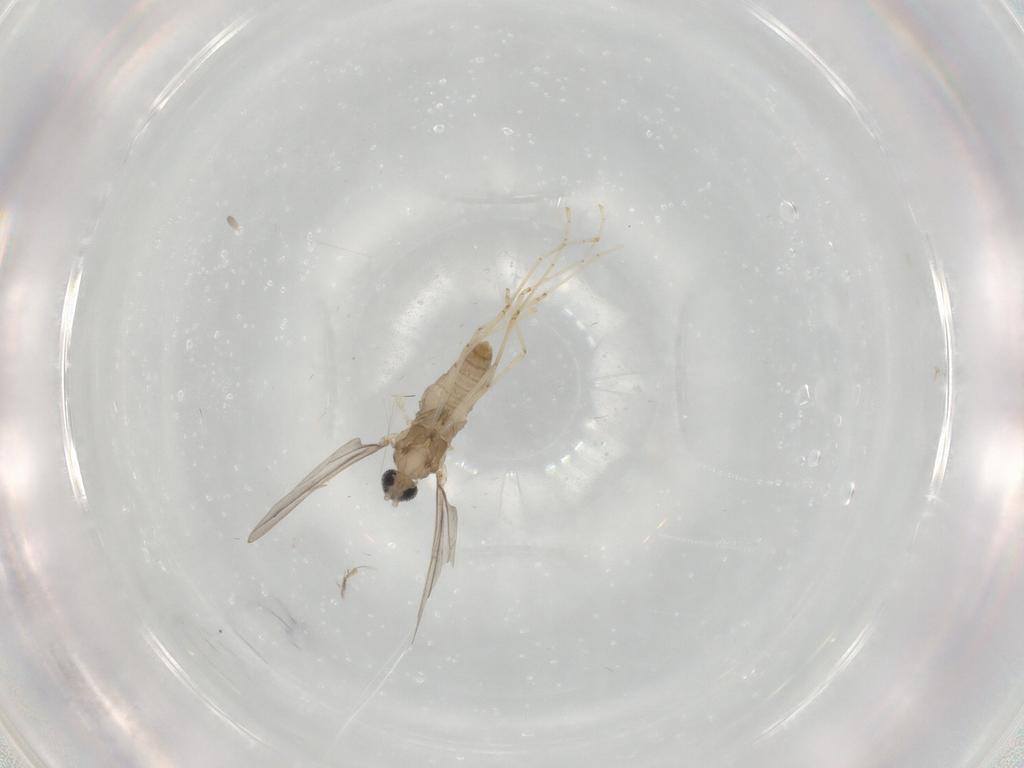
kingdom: Animalia
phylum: Arthropoda
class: Insecta
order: Diptera
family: Cecidomyiidae
